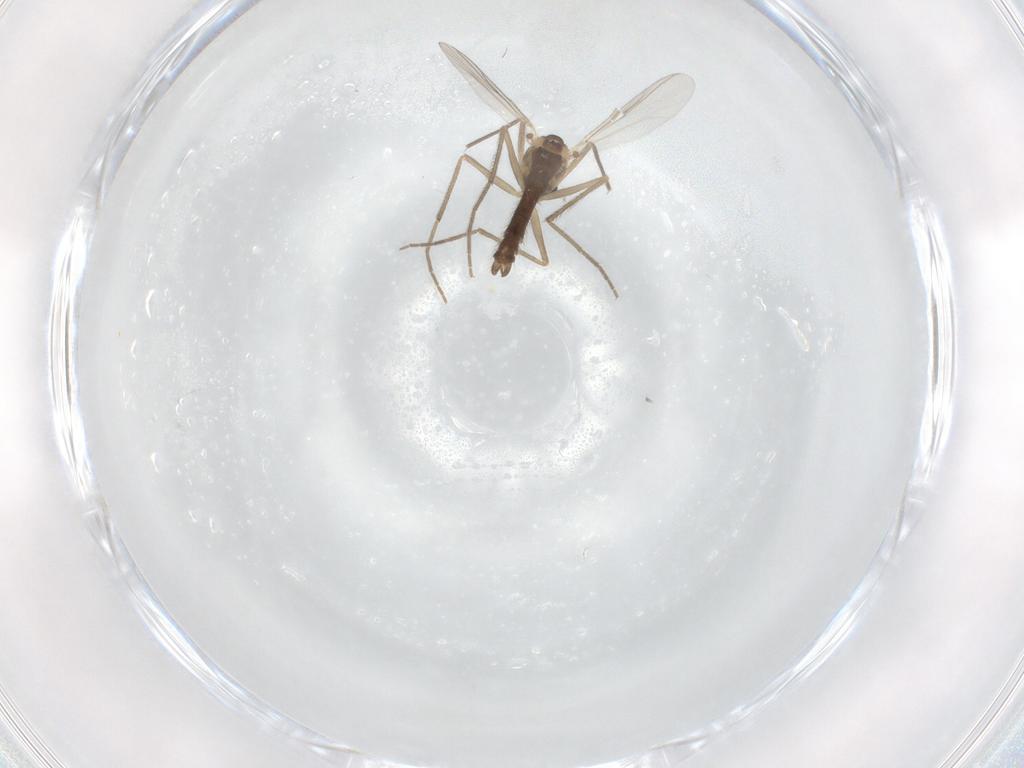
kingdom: Animalia
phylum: Arthropoda
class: Insecta
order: Diptera
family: Chironomidae
